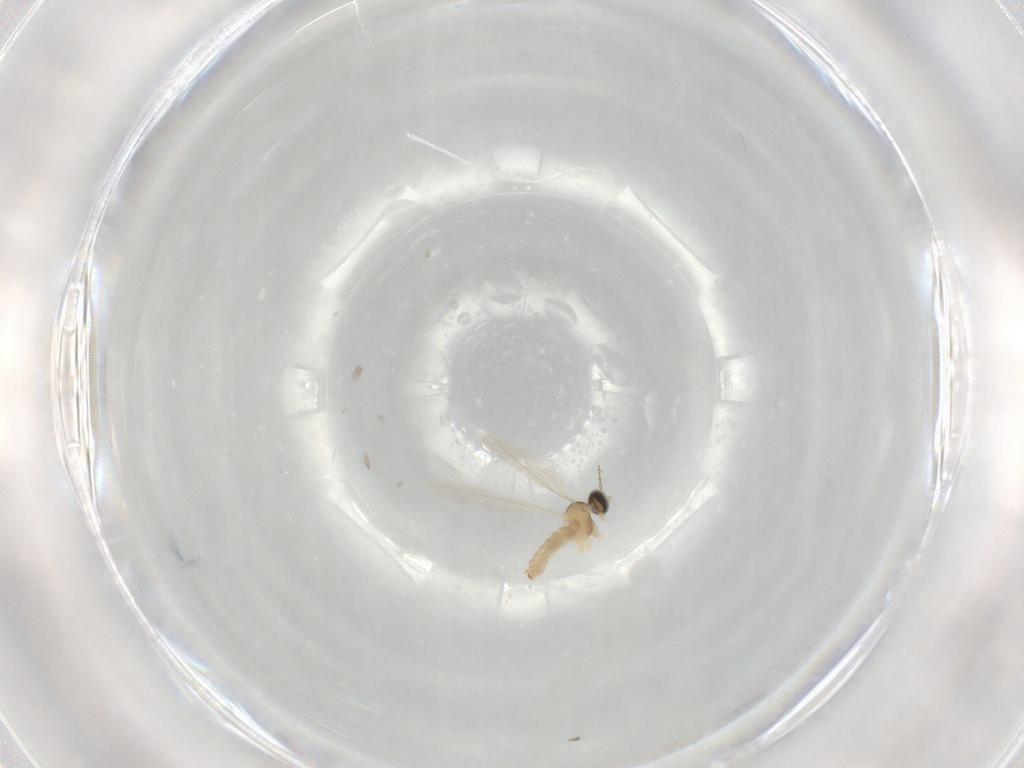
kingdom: Animalia
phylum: Arthropoda
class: Insecta
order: Diptera
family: Cecidomyiidae
